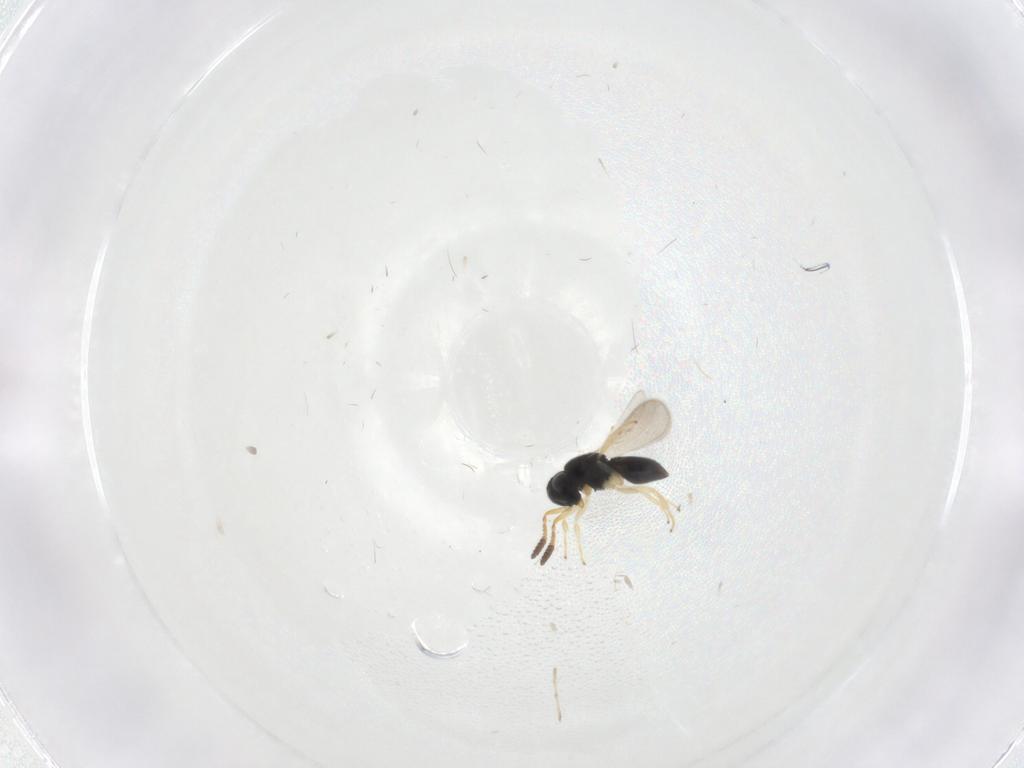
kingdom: Animalia
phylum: Arthropoda
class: Insecta
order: Hymenoptera
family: Scelionidae
